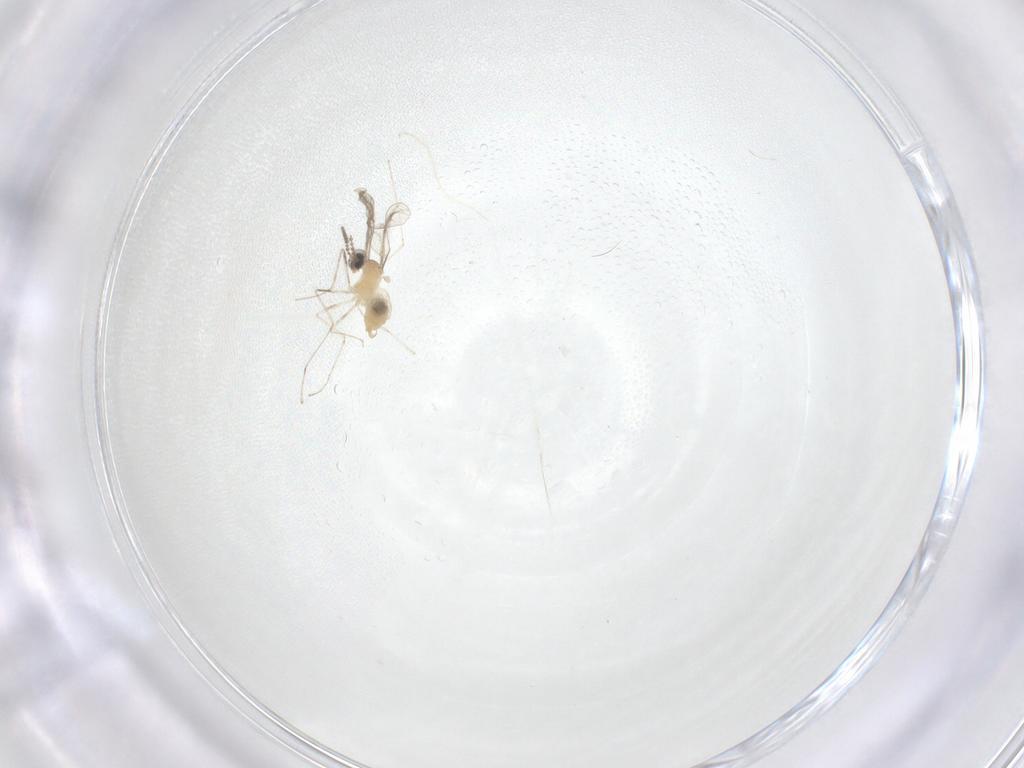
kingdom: Animalia
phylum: Arthropoda
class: Insecta
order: Diptera
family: Cecidomyiidae
